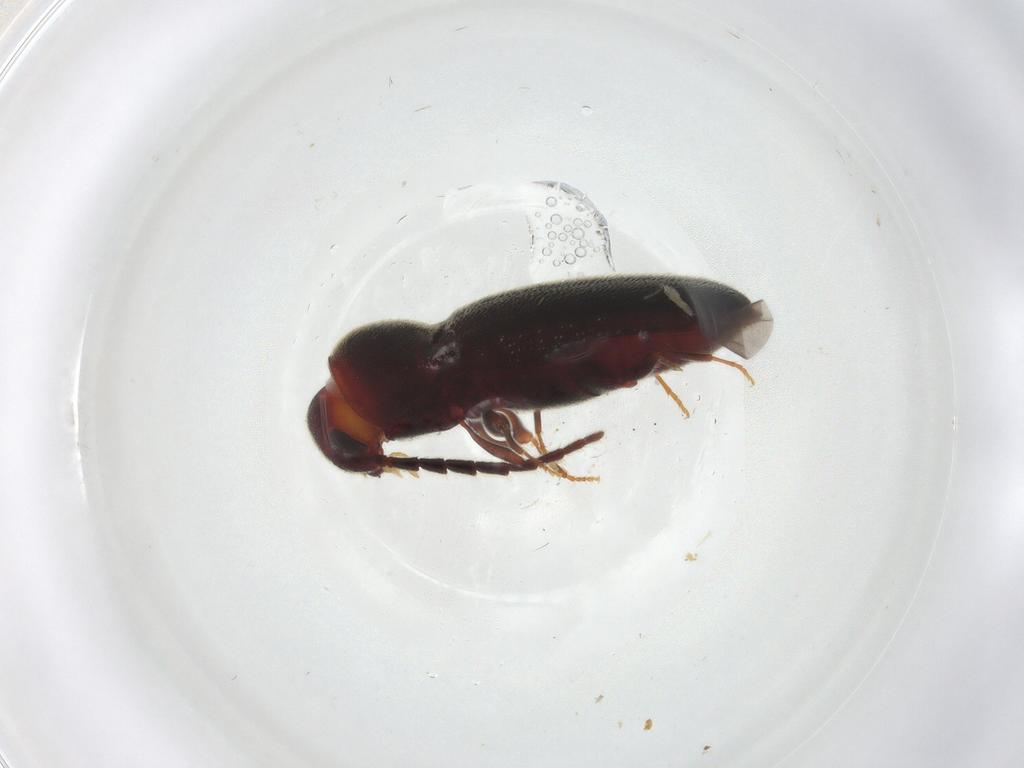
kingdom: Animalia
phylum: Arthropoda
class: Insecta
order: Coleoptera
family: Eucnemidae
